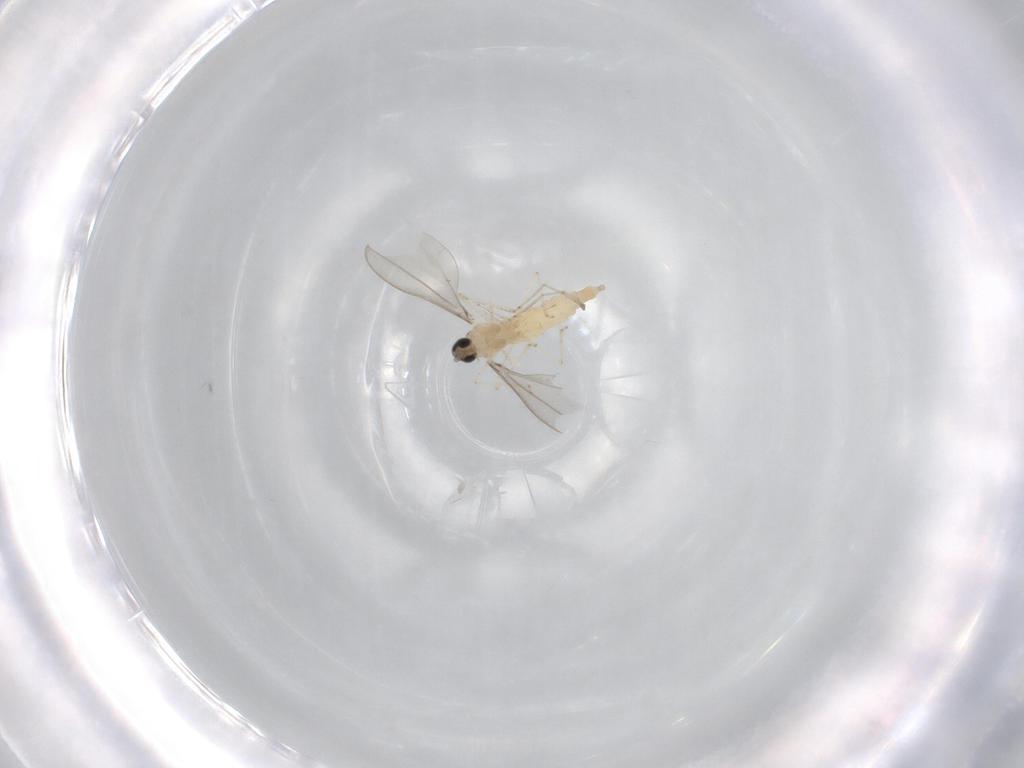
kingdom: Animalia
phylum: Arthropoda
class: Insecta
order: Diptera
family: Cecidomyiidae
